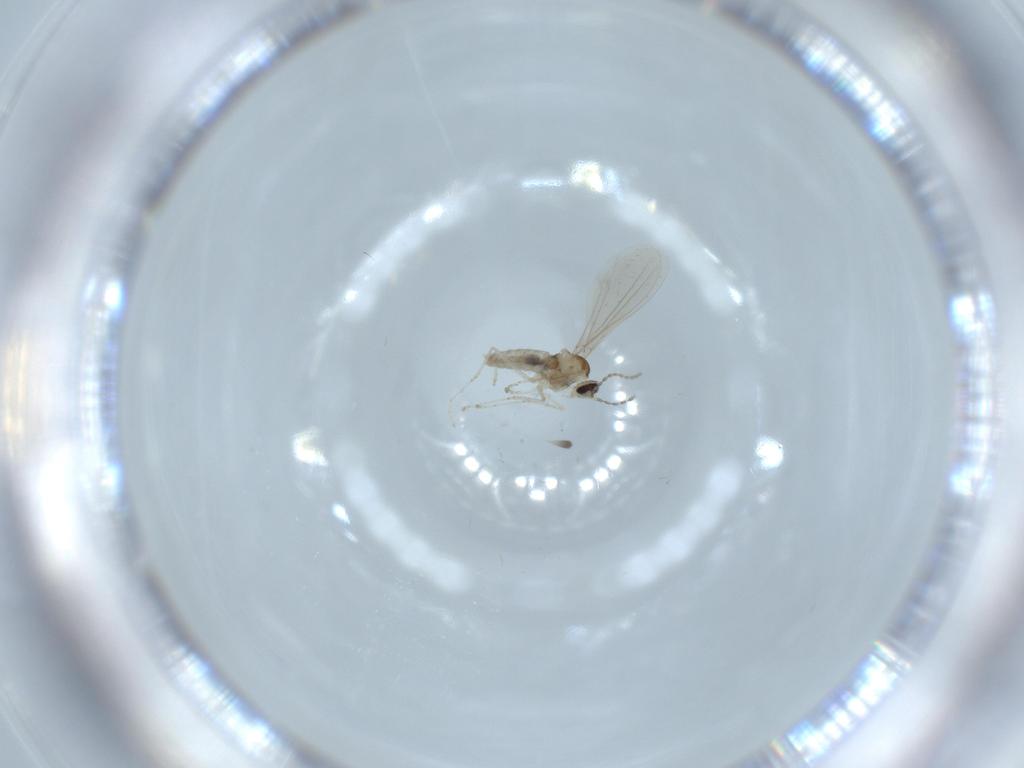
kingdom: Animalia
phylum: Arthropoda
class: Insecta
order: Diptera
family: Cecidomyiidae
